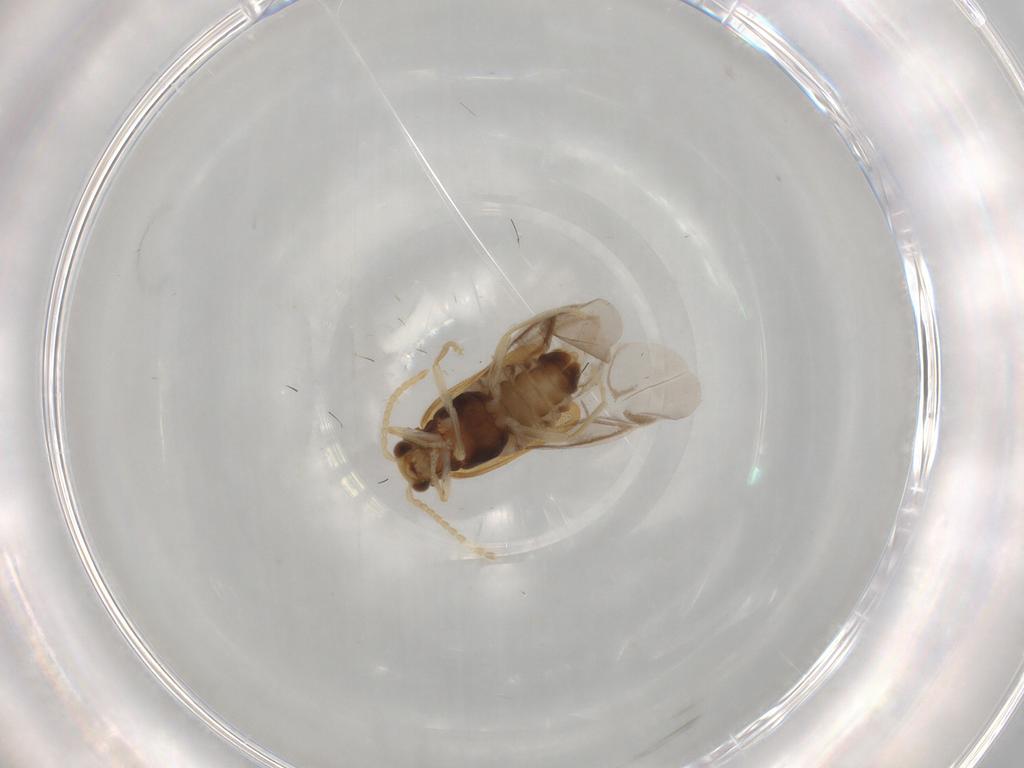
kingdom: Animalia
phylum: Arthropoda
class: Insecta
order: Coleoptera
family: Cantharidae
